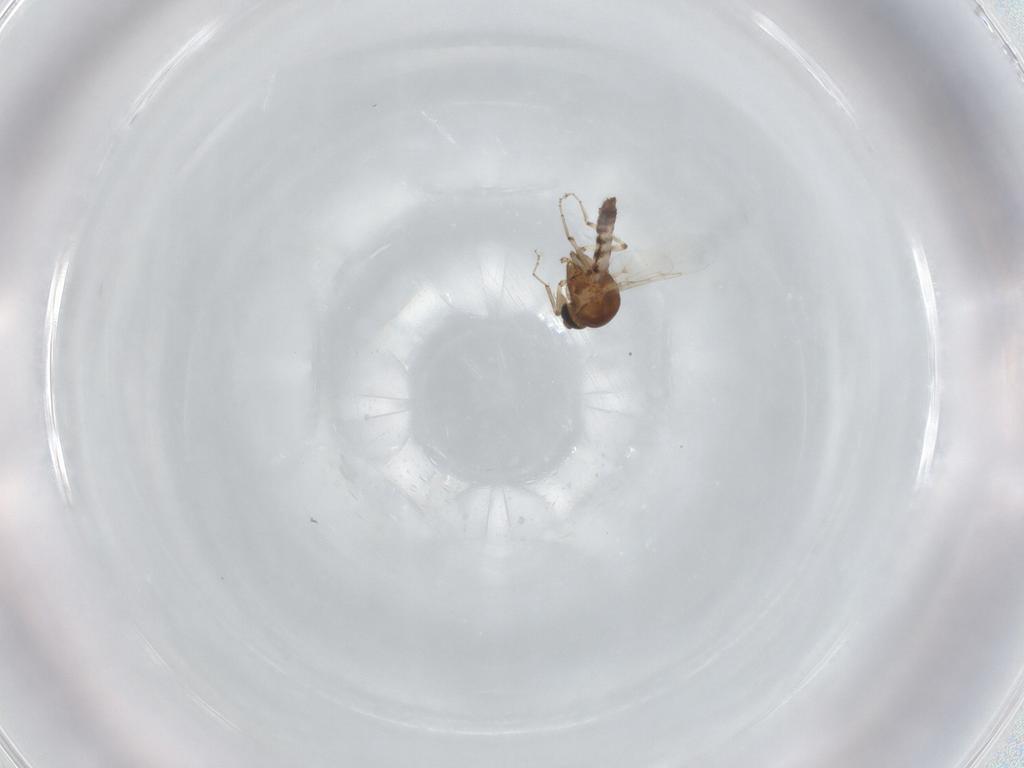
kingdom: Animalia
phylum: Arthropoda
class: Insecta
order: Diptera
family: Ceratopogonidae
